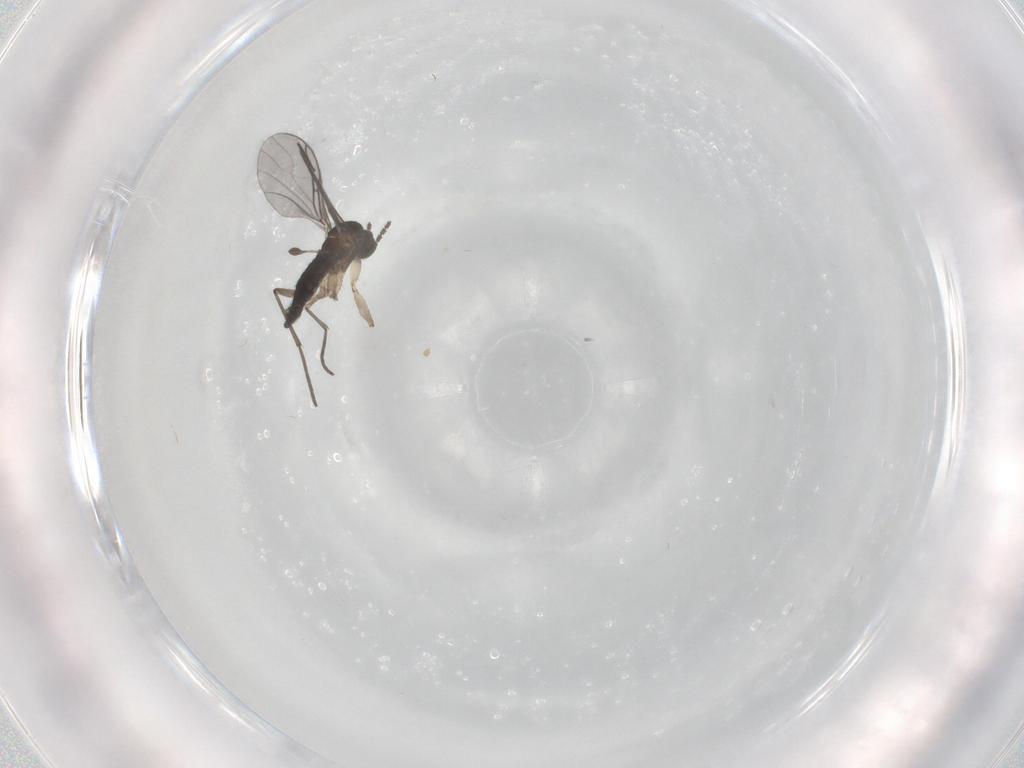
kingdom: Animalia
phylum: Arthropoda
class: Insecta
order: Diptera
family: Sciaridae
